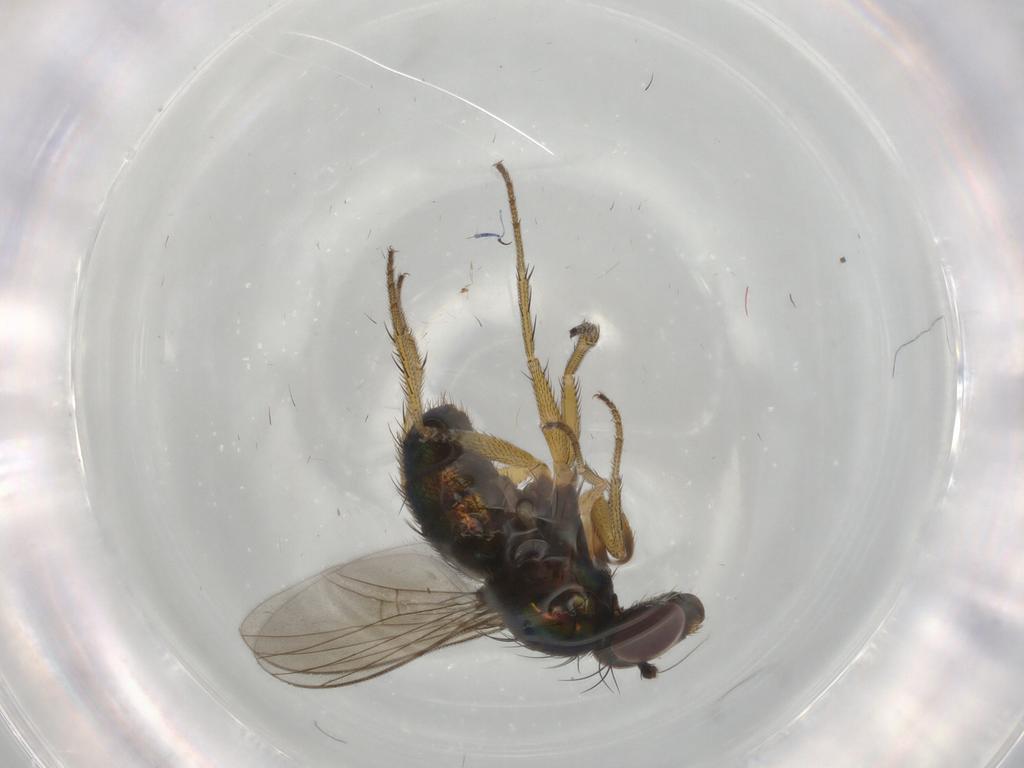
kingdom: Animalia
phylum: Arthropoda
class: Insecta
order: Diptera
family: Dolichopodidae
